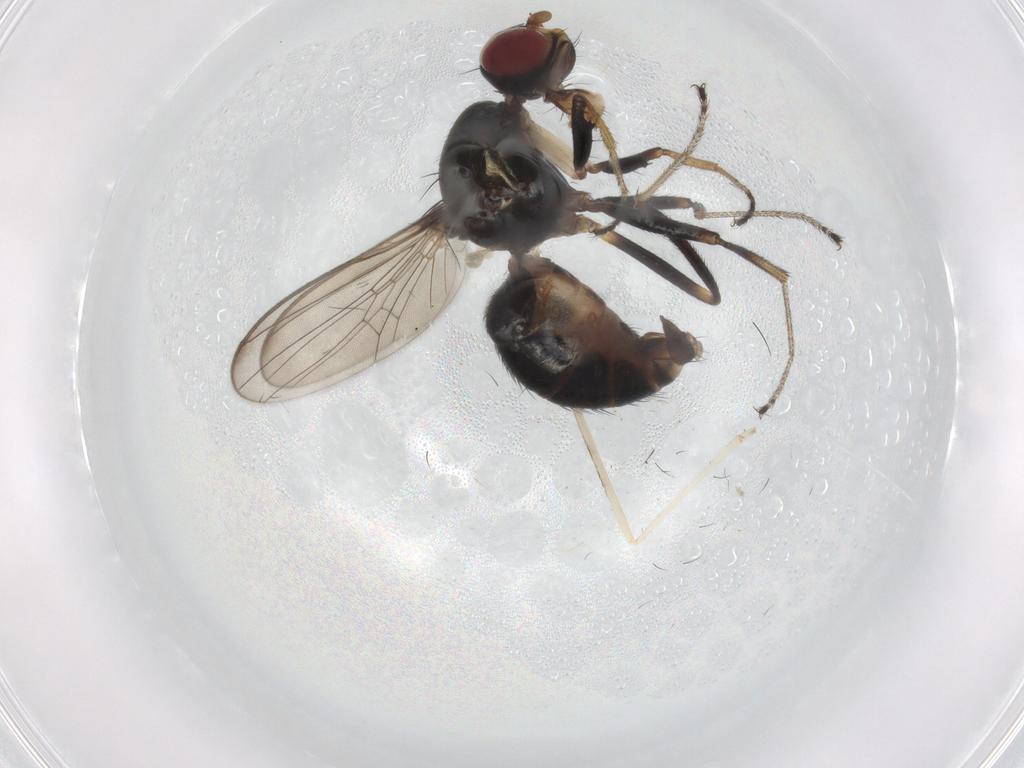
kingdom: Animalia
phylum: Arthropoda
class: Insecta
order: Diptera
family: Sepsidae
